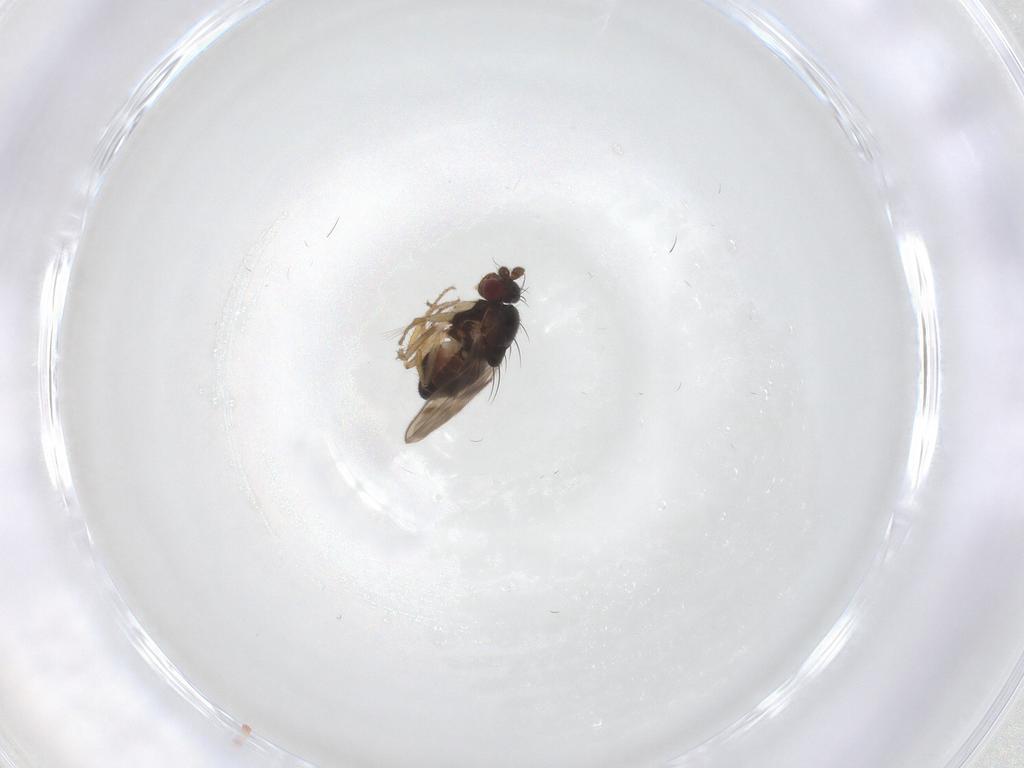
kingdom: Animalia
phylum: Arthropoda
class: Insecta
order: Diptera
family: Sphaeroceridae
